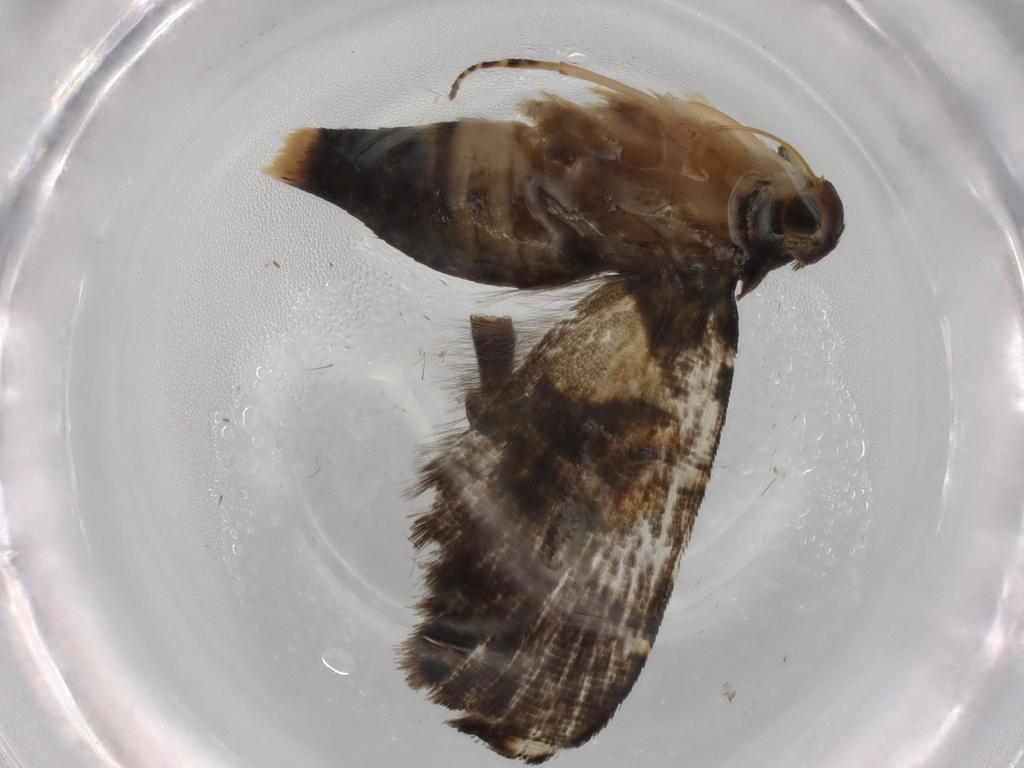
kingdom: Animalia
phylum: Arthropoda
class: Insecta
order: Lepidoptera
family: Glyphipterigidae
